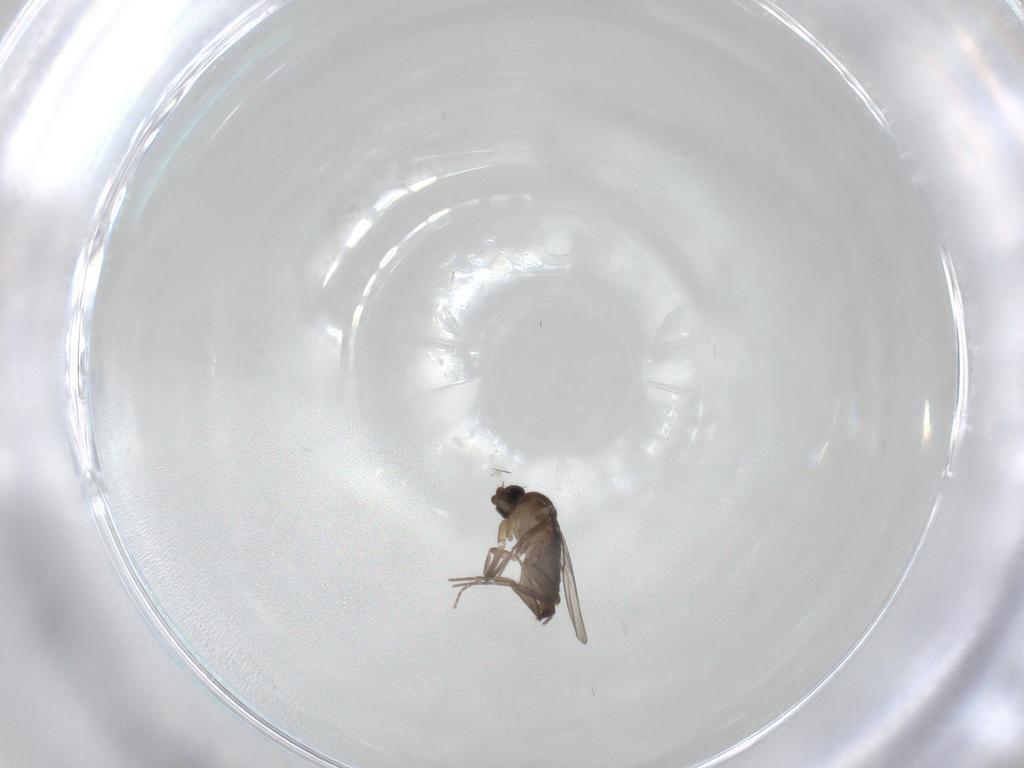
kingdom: Animalia
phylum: Arthropoda
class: Insecta
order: Diptera
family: Cecidomyiidae
